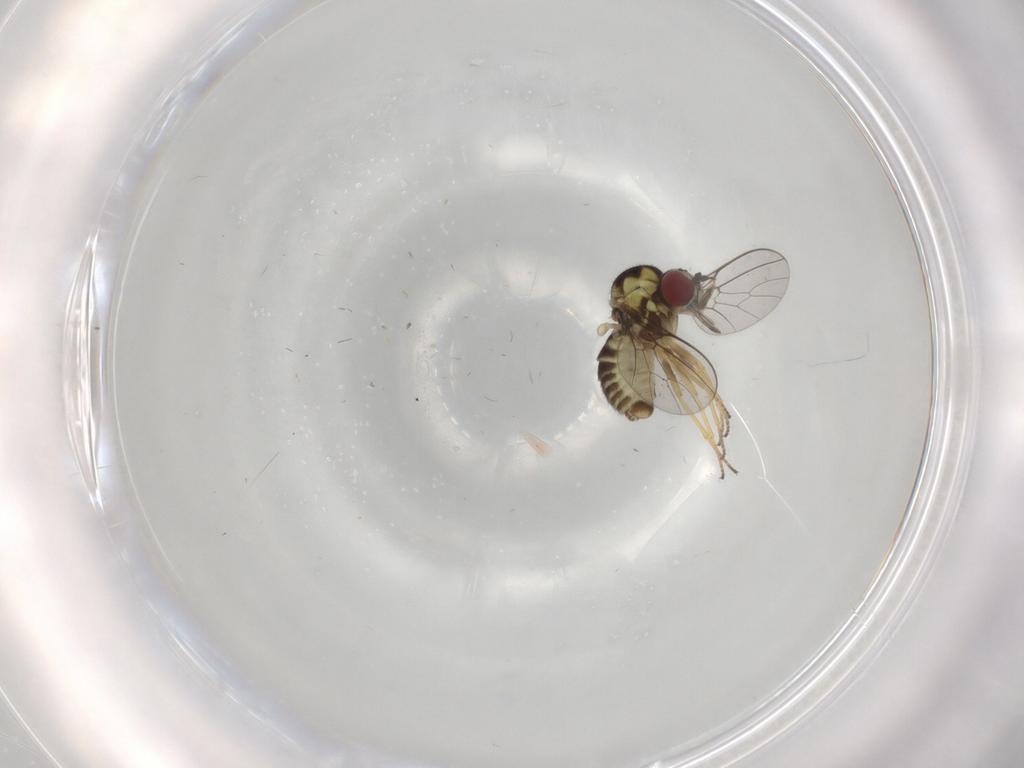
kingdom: Animalia
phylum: Arthropoda
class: Insecta
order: Diptera
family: Bombyliidae
